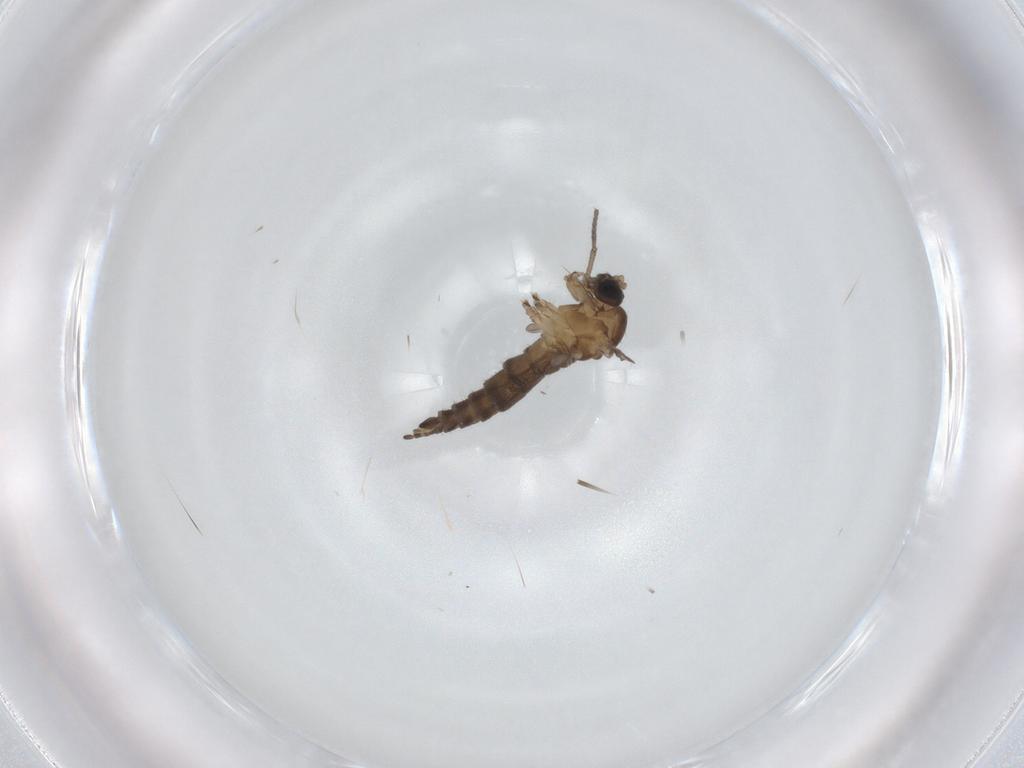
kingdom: Animalia
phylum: Arthropoda
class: Insecta
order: Diptera
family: Sciaridae
